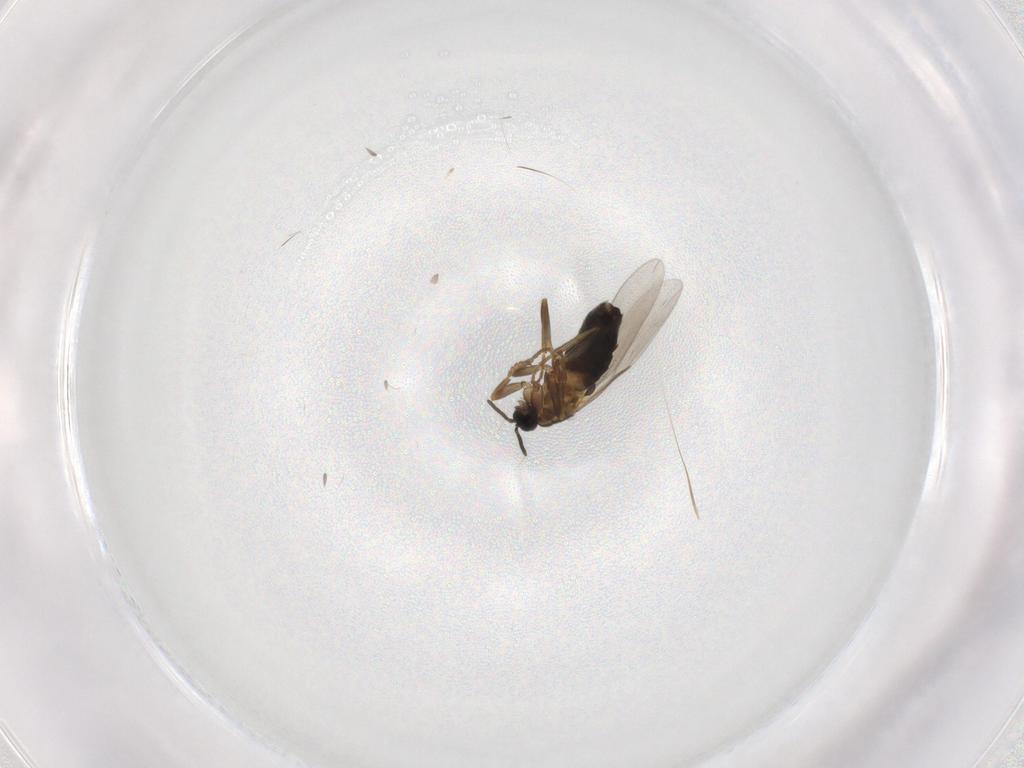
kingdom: Animalia
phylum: Arthropoda
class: Insecta
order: Diptera
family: Scatopsidae
